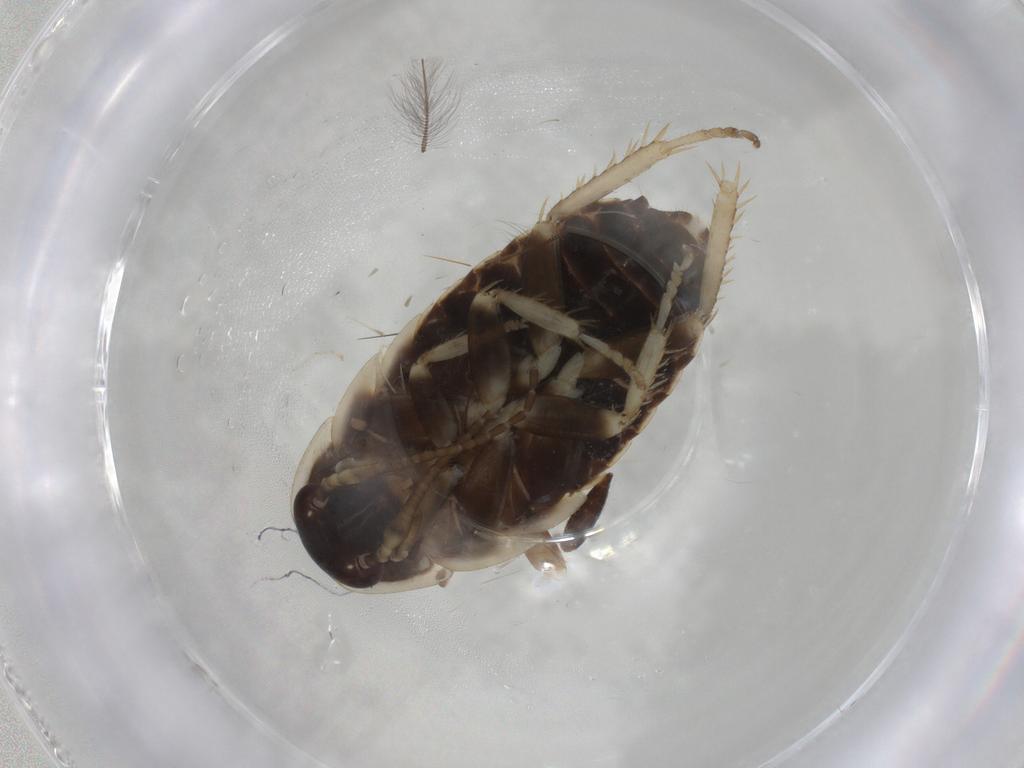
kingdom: Animalia
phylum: Arthropoda
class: Insecta
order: Blattodea
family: Ectobiidae
